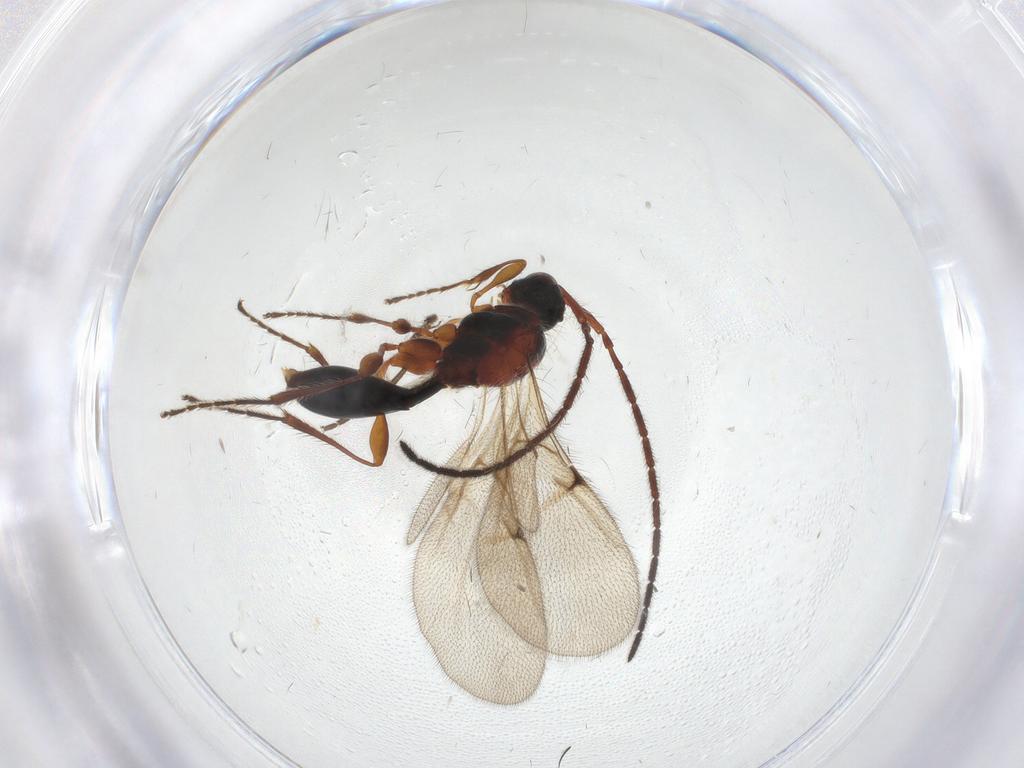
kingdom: Animalia
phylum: Arthropoda
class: Insecta
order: Hymenoptera
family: Diapriidae
